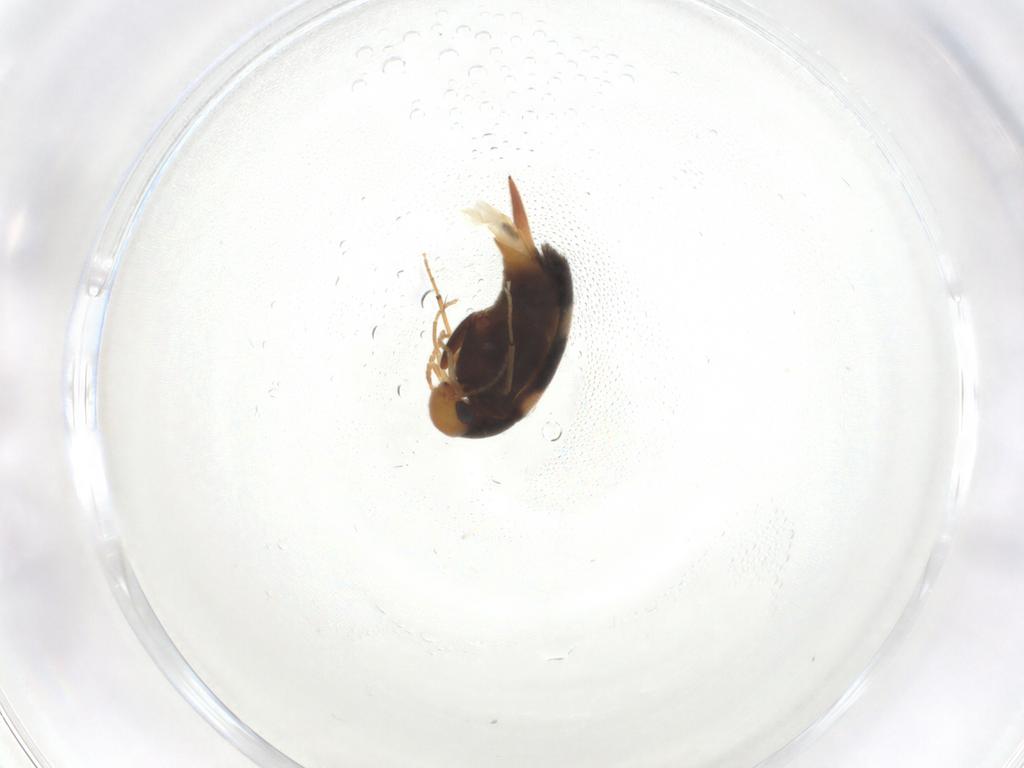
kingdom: Animalia
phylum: Arthropoda
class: Insecta
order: Coleoptera
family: Mordellidae
